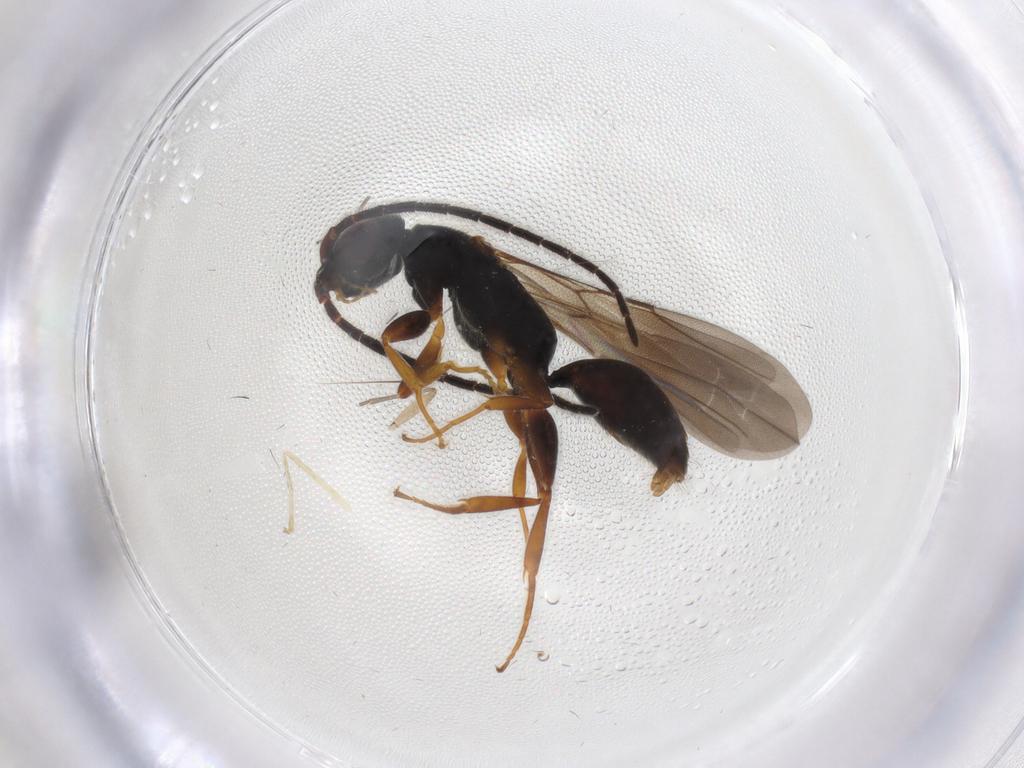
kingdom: Animalia
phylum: Arthropoda
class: Insecta
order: Hymenoptera
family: Bethylidae
